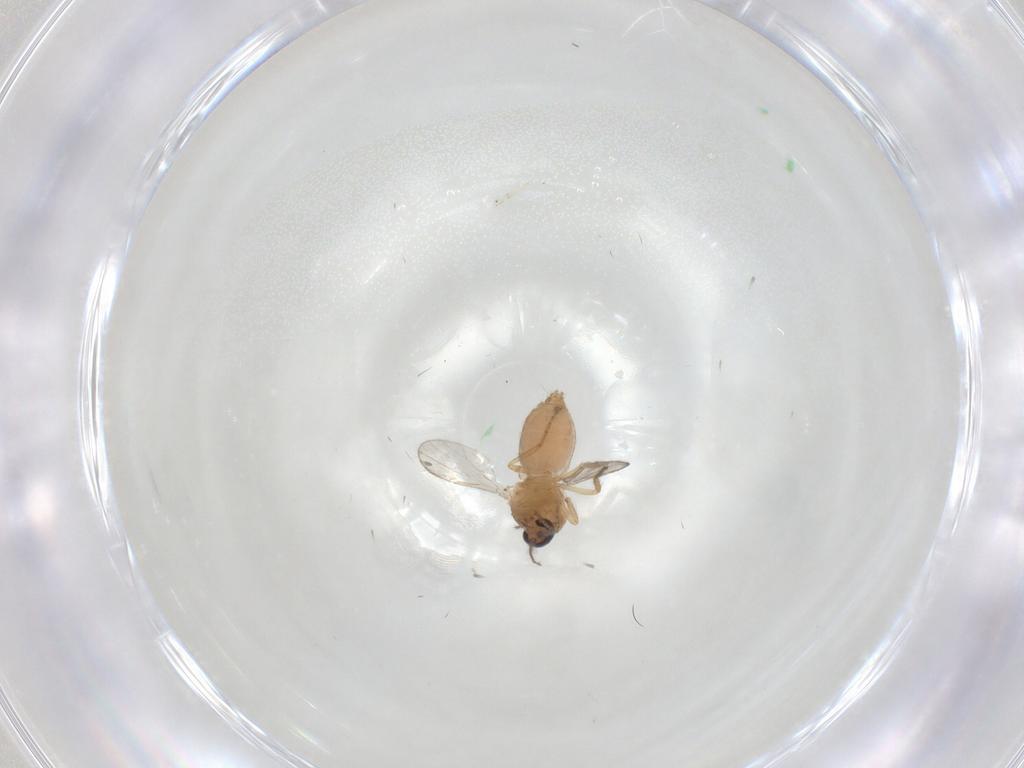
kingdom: Animalia
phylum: Arthropoda
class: Insecta
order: Diptera
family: Ceratopogonidae
